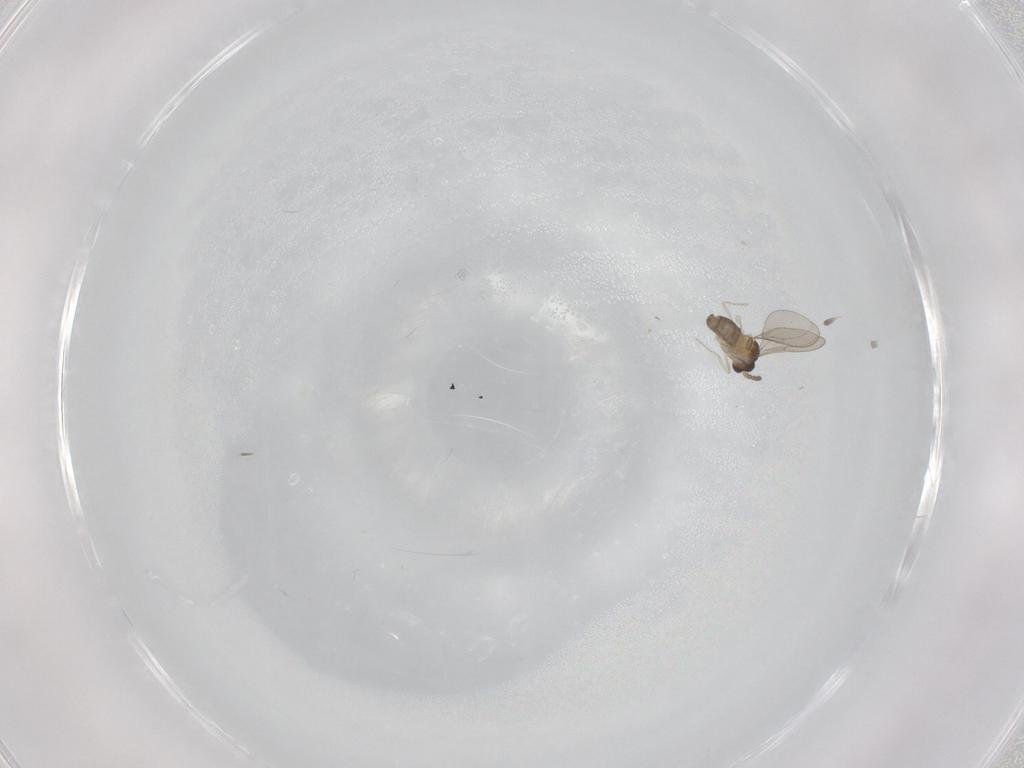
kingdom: Animalia
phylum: Arthropoda
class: Insecta
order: Diptera
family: Cecidomyiidae
